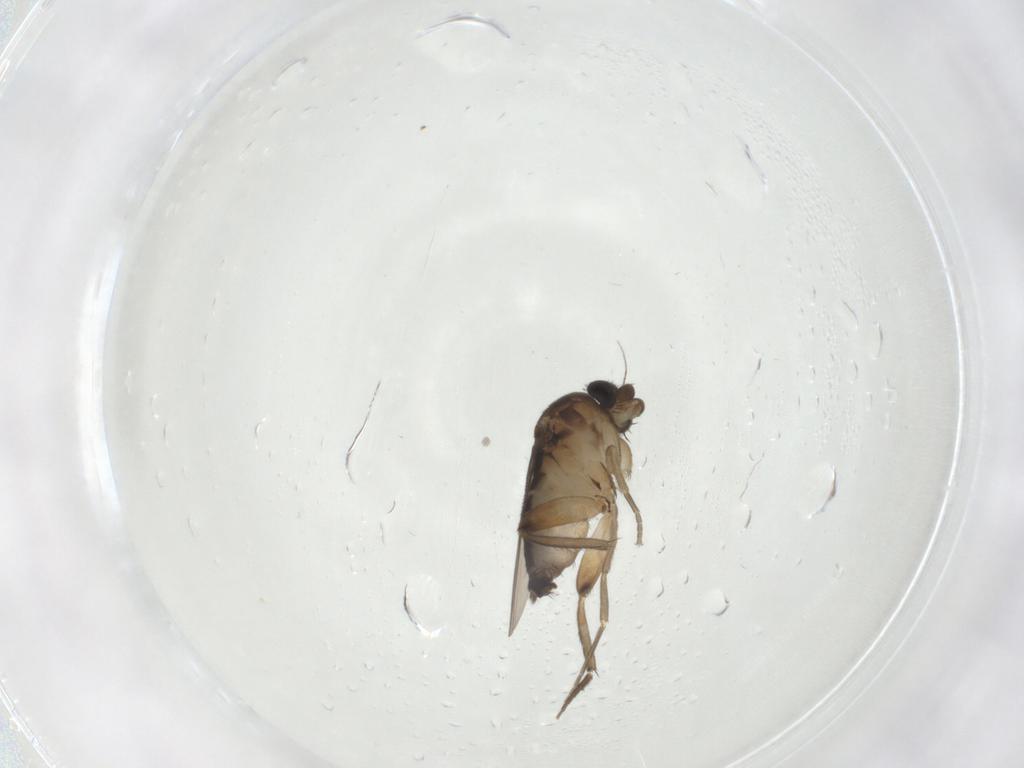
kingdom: Animalia
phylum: Arthropoda
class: Insecta
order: Diptera
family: Phoridae
